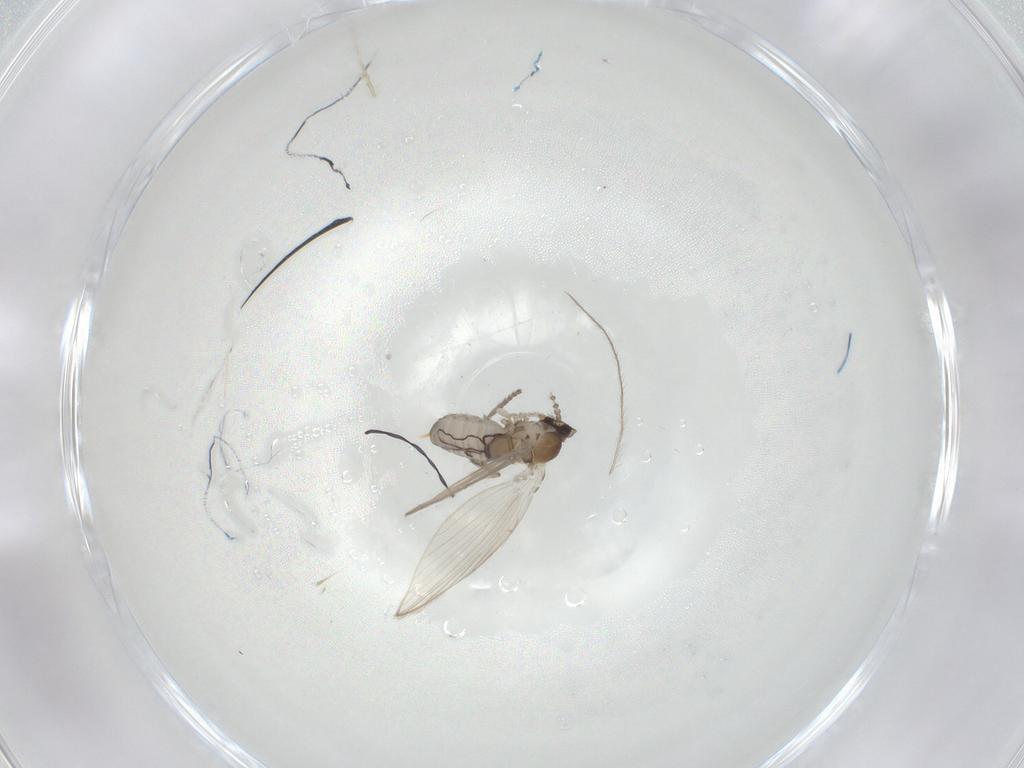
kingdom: Animalia
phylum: Arthropoda
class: Insecta
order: Diptera
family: Psychodidae
